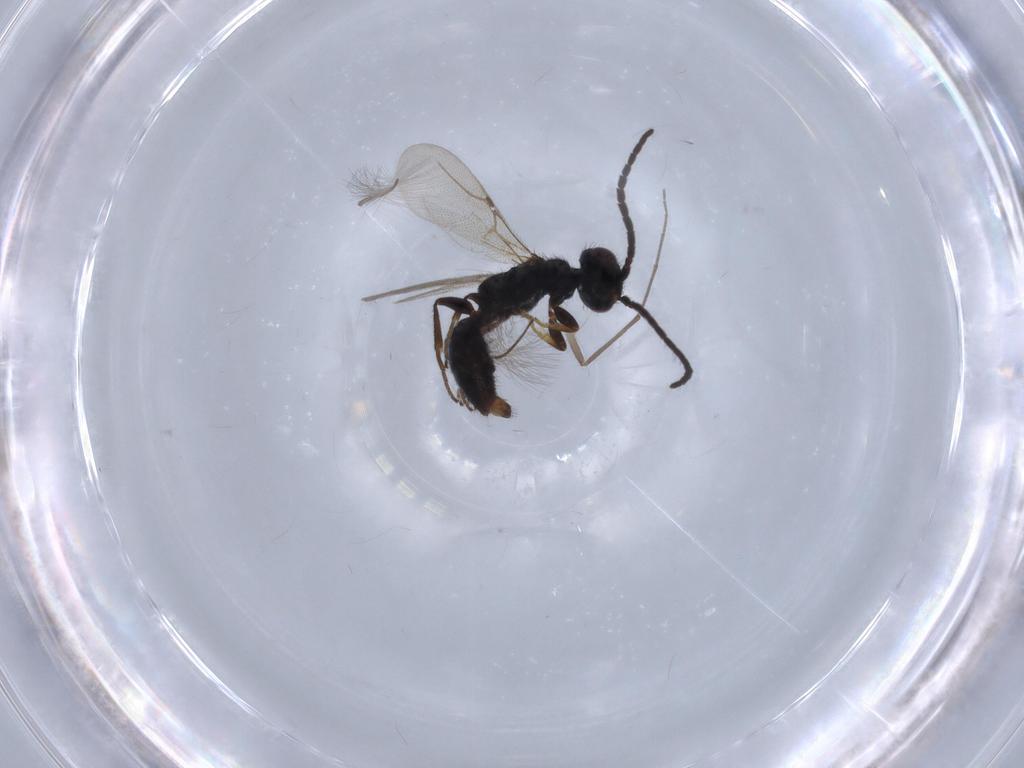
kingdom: Animalia
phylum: Arthropoda
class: Insecta
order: Hymenoptera
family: Bethylidae
